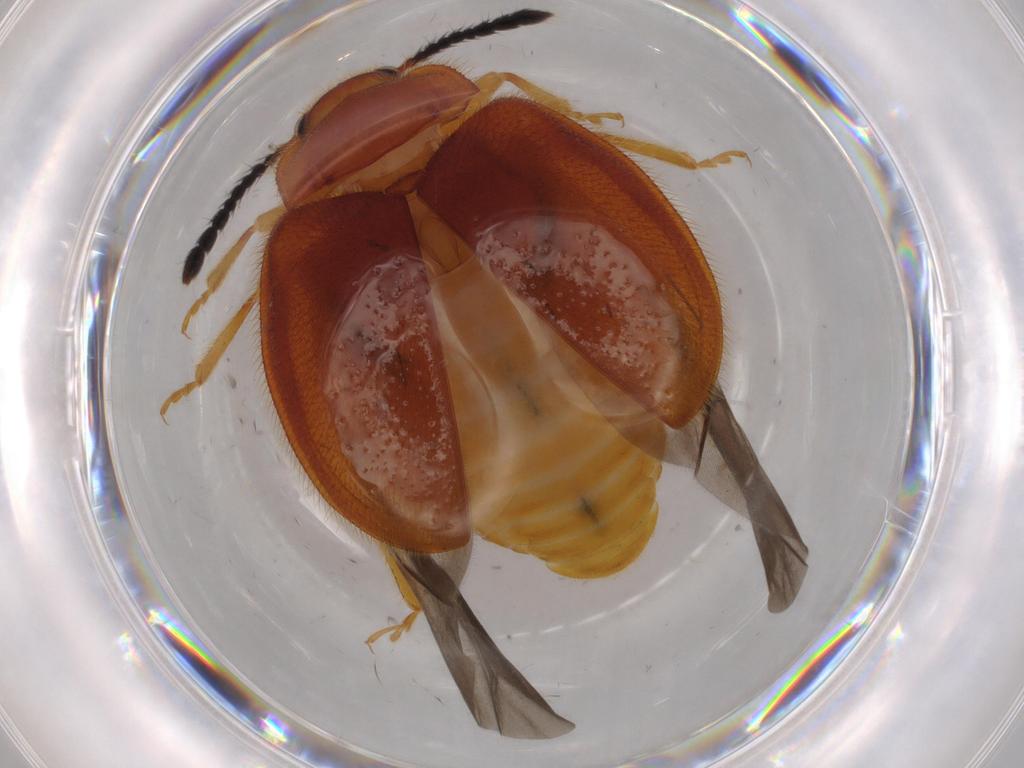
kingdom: Animalia
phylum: Arthropoda
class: Insecta
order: Coleoptera
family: Endomychidae
